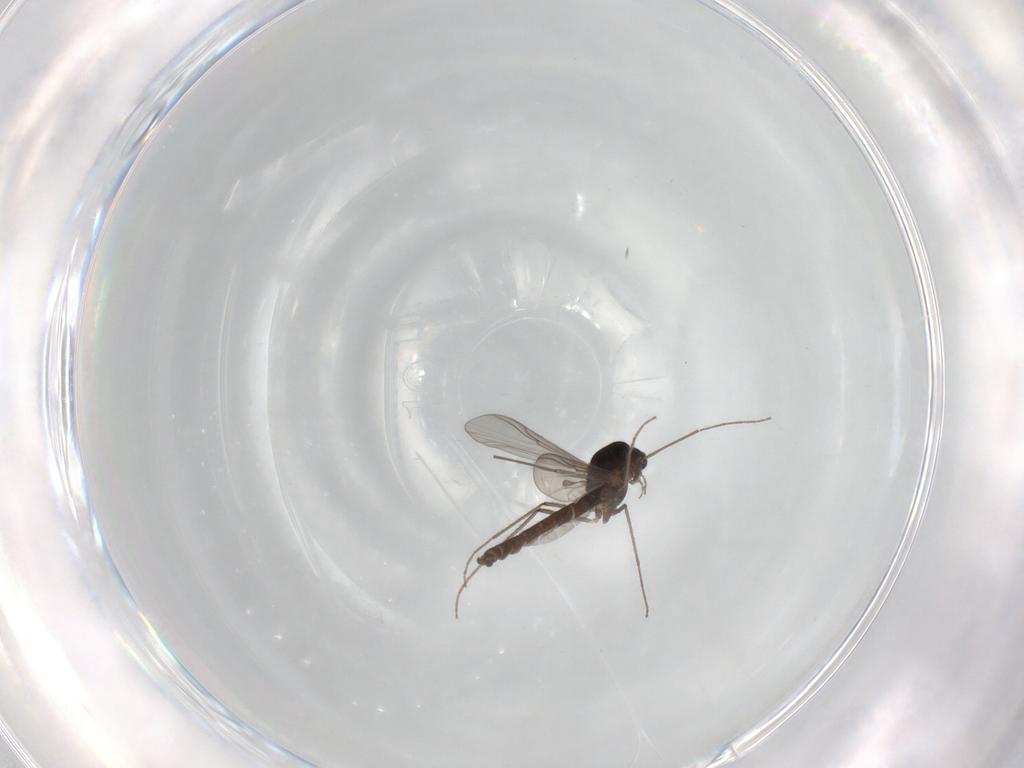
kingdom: Animalia
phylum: Arthropoda
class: Insecta
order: Diptera
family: Chironomidae
